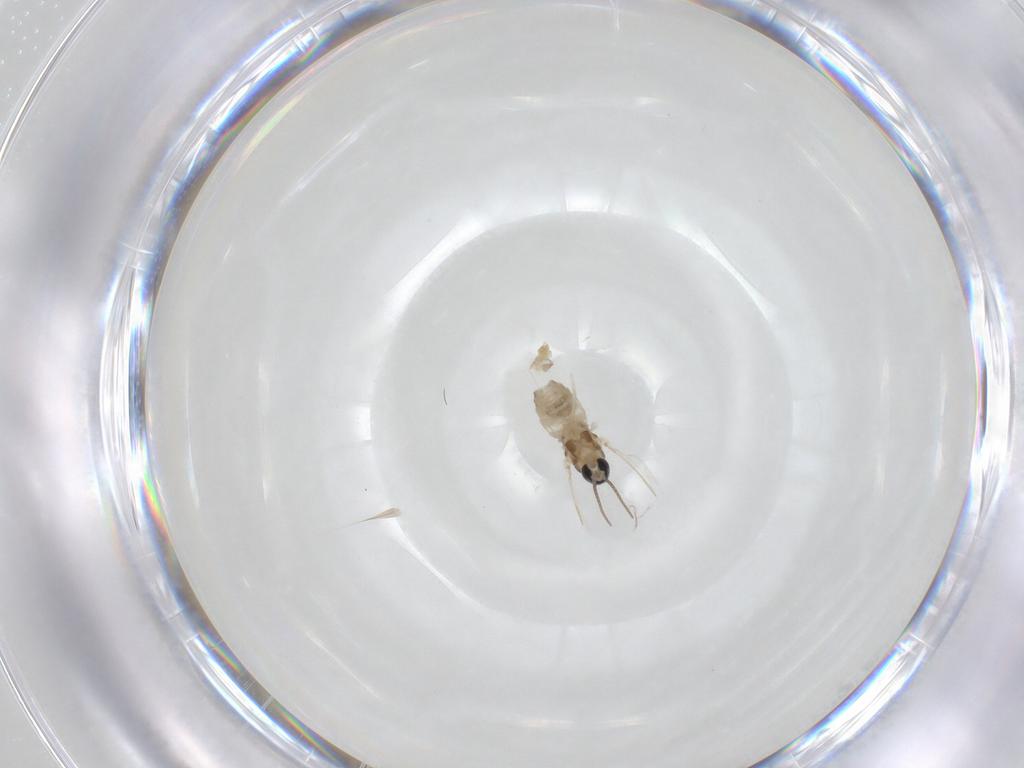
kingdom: Animalia
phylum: Arthropoda
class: Insecta
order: Diptera
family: Cecidomyiidae
